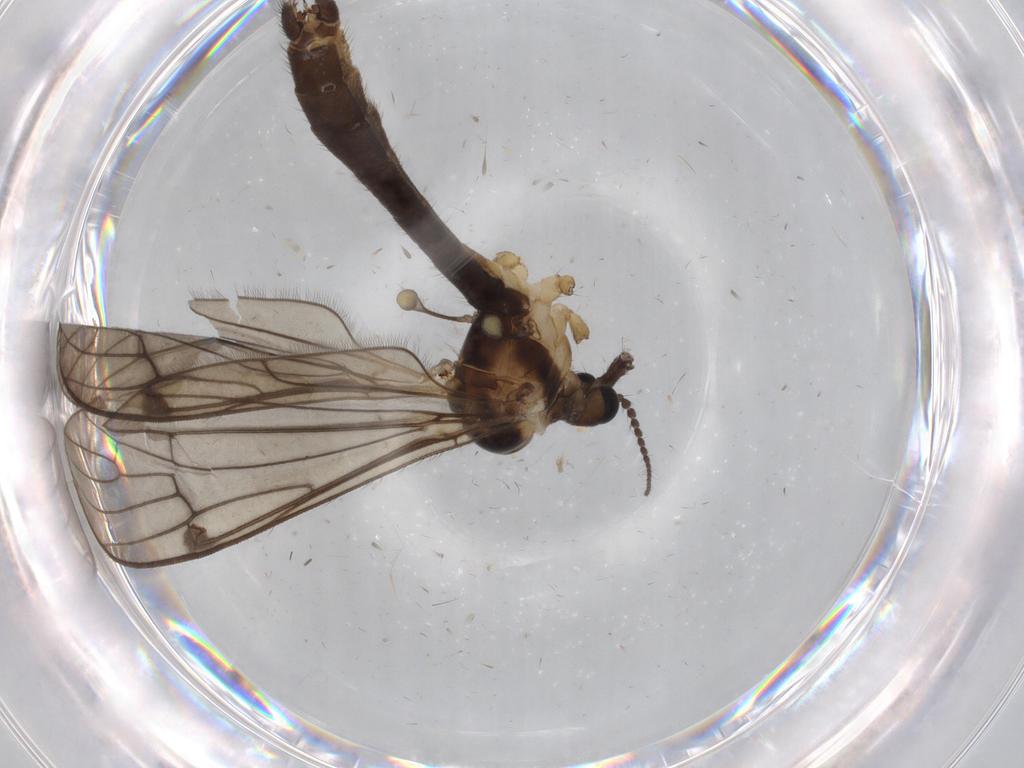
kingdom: Animalia
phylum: Arthropoda
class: Insecta
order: Diptera
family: Limoniidae
